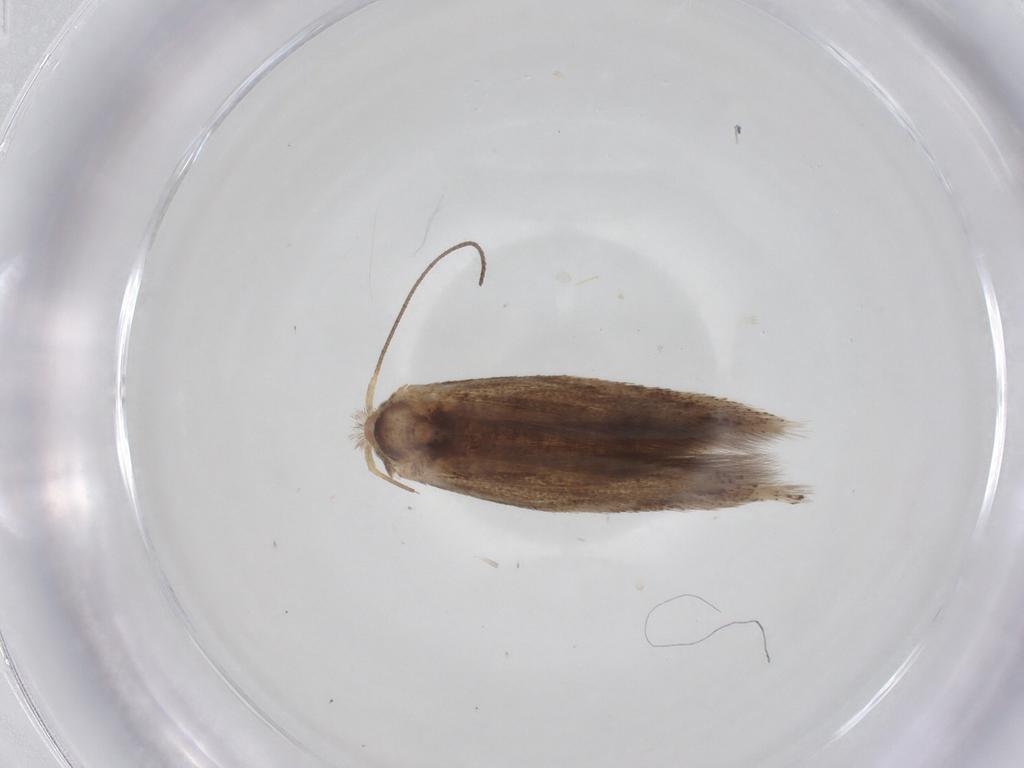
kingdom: Animalia
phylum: Arthropoda
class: Insecta
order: Lepidoptera
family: Bucculatricidae
